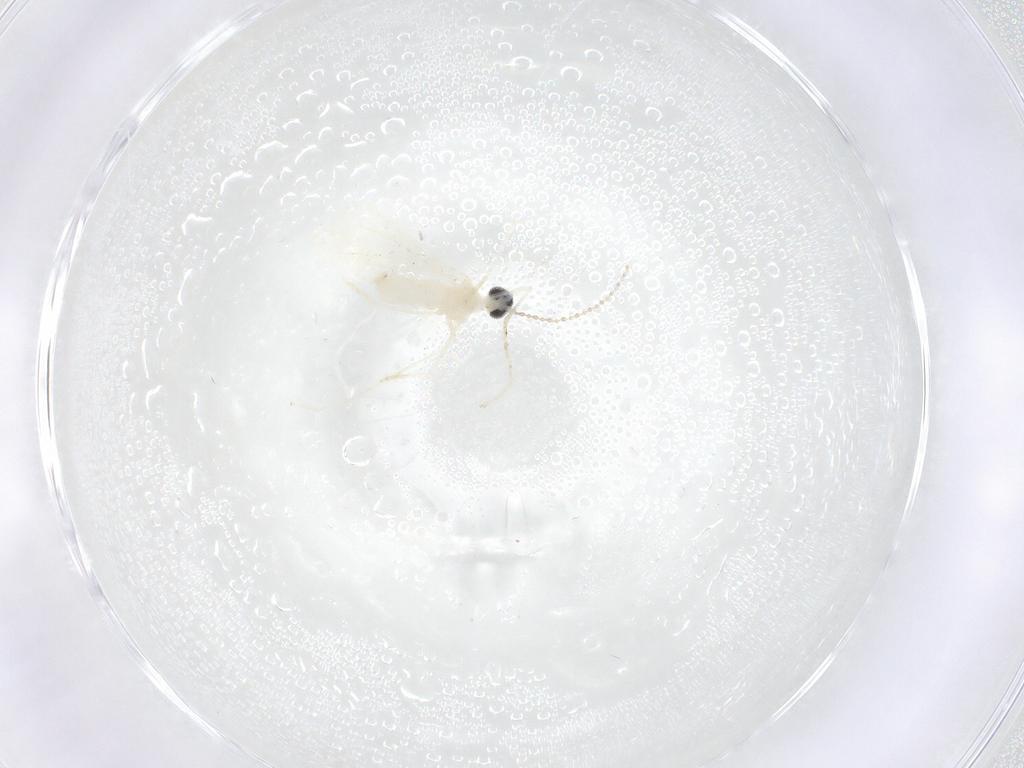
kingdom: Animalia
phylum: Arthropoda
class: Insecta
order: Diptera
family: Cecidomyiidae
